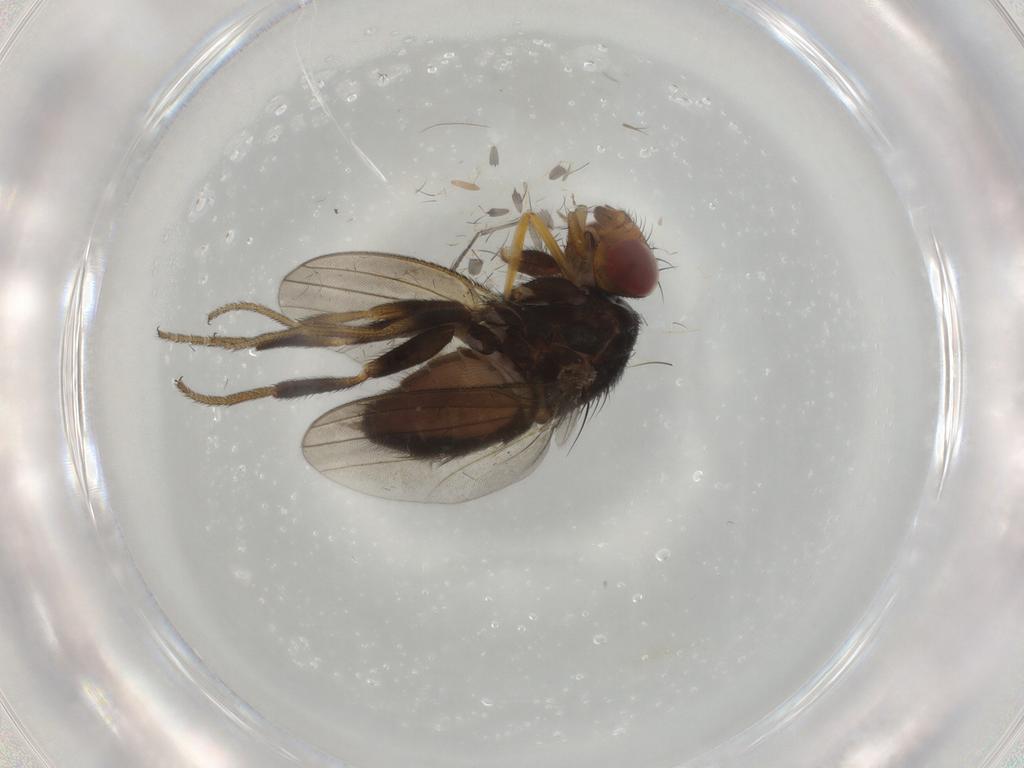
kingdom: Animalia
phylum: Arthropoda
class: Insecta
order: Diptera
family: Milichiidae
